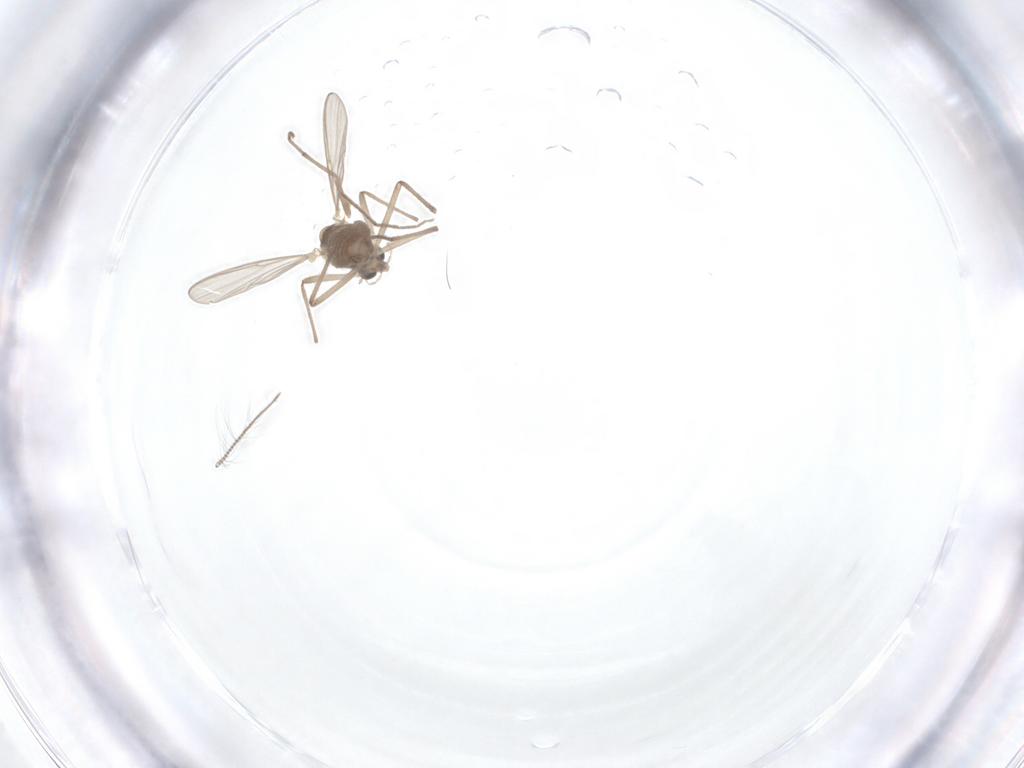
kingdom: Animalia
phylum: Arthropoda
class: Insecta
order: Diptera
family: Chironomidae
